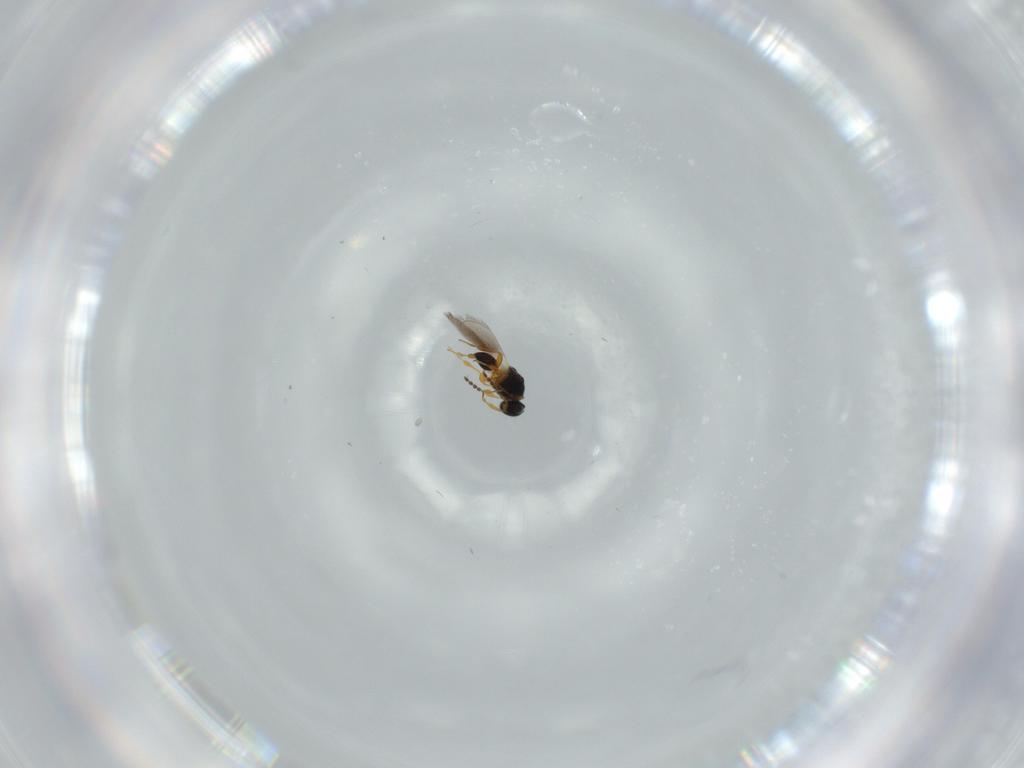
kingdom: Animalia
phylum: Arthropoda
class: Insecta
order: Hymenoptera
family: Platygastridae
